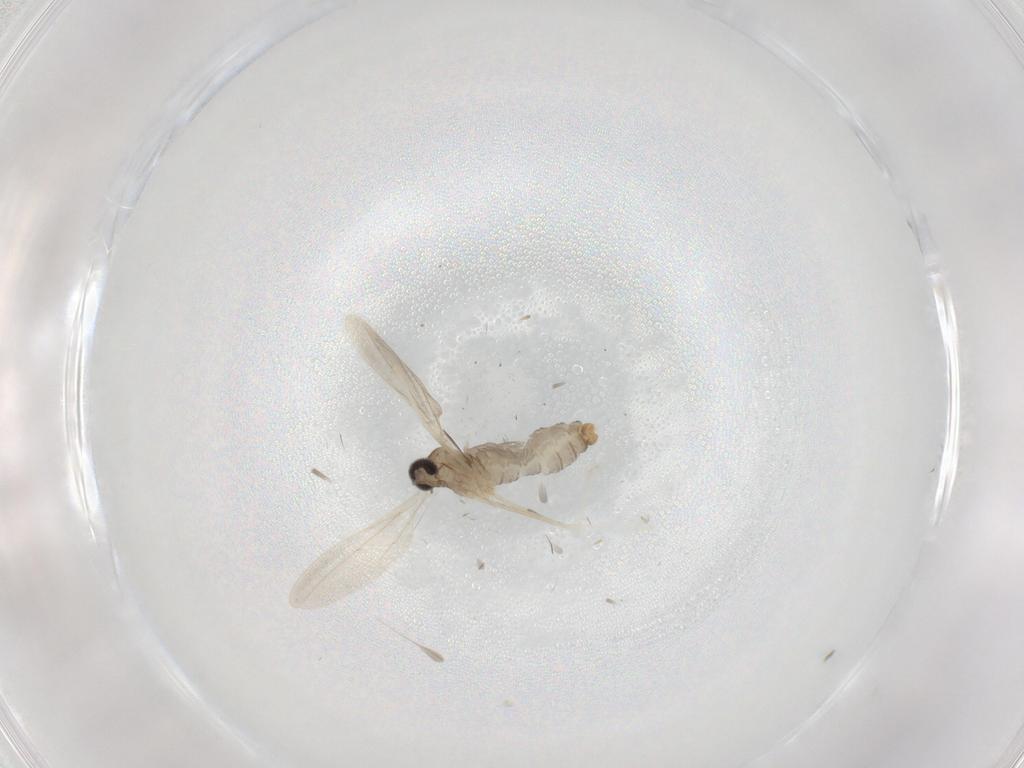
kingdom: Animalia
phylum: Arthropoda
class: Insecta
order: Diptera
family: Cecidomyiidae
